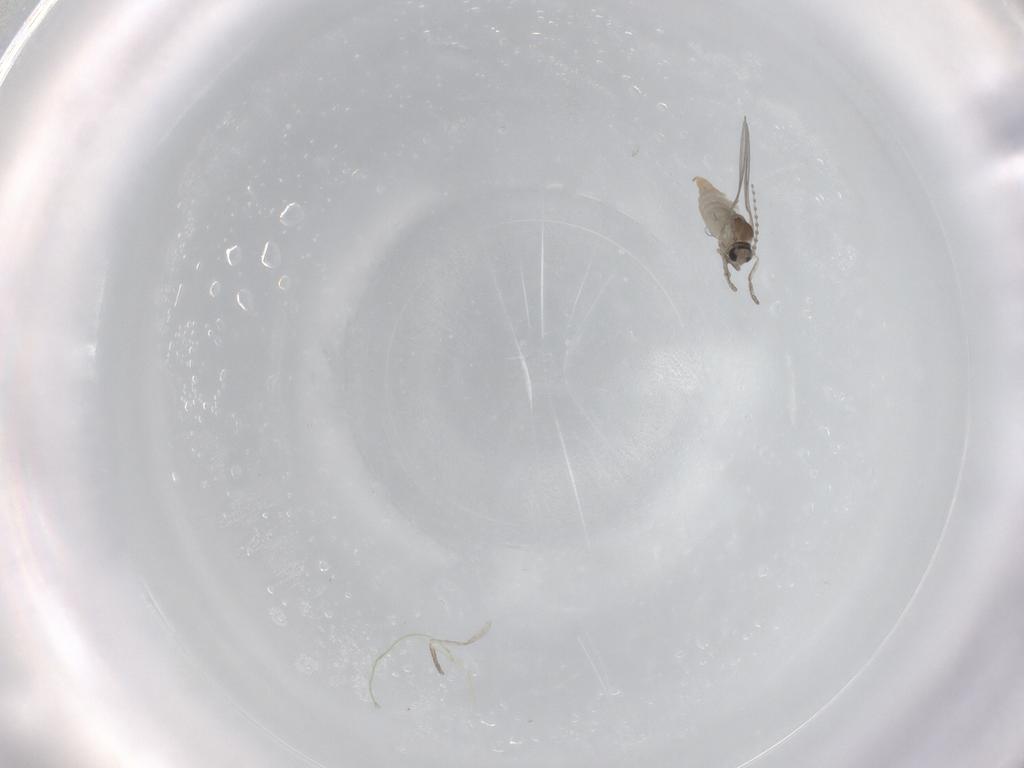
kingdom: Animalia
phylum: Arthropoda
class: Insecta
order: Diptera
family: Cecidomyiidae
